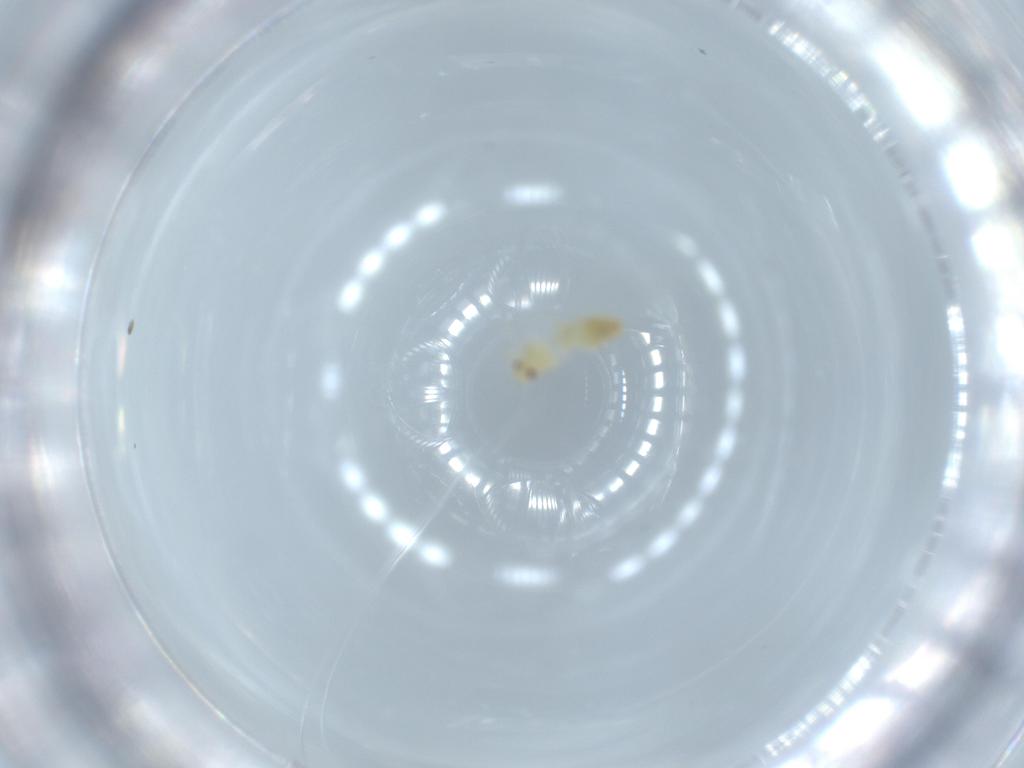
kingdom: Animalia
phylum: Arthropoda
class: Insecta
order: Hemiptera
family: Aleyrodidae
